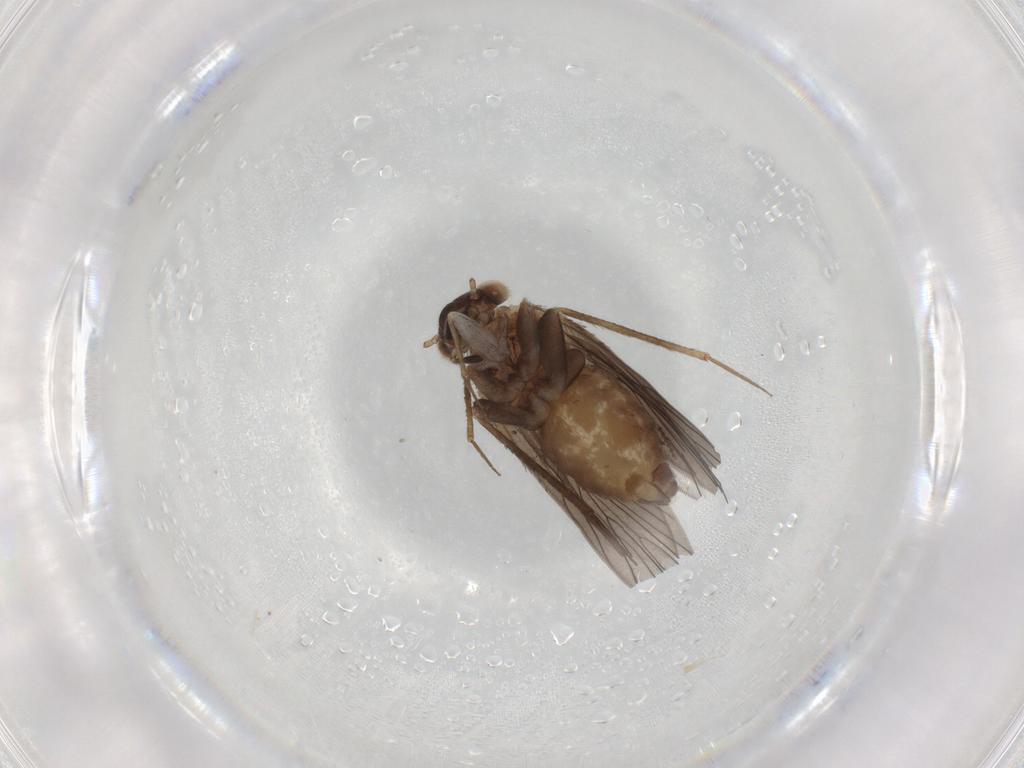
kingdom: Animalia
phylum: Arthropoda
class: Insecta
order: Psocodea
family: Lepidopsocidae
